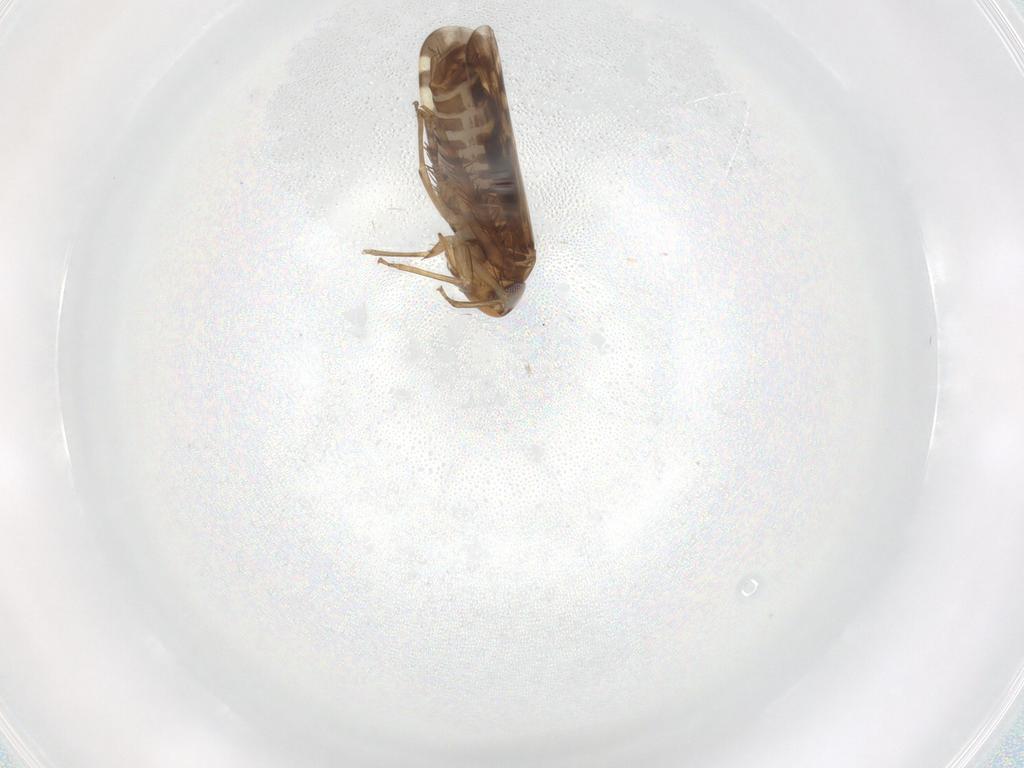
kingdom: Animalia
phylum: Arthropoda
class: Insecta
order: Hemiptera
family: Cicadellidae
